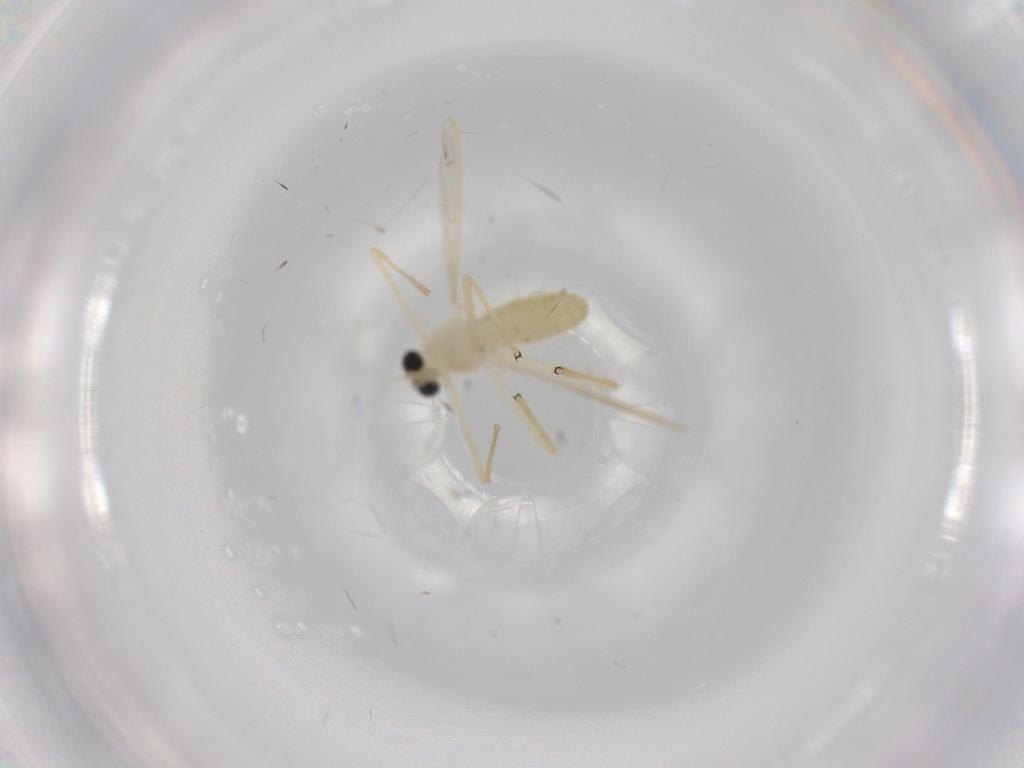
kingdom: Animalia
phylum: Arthropoda
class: Insecta
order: Diptera
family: Chironomidae
